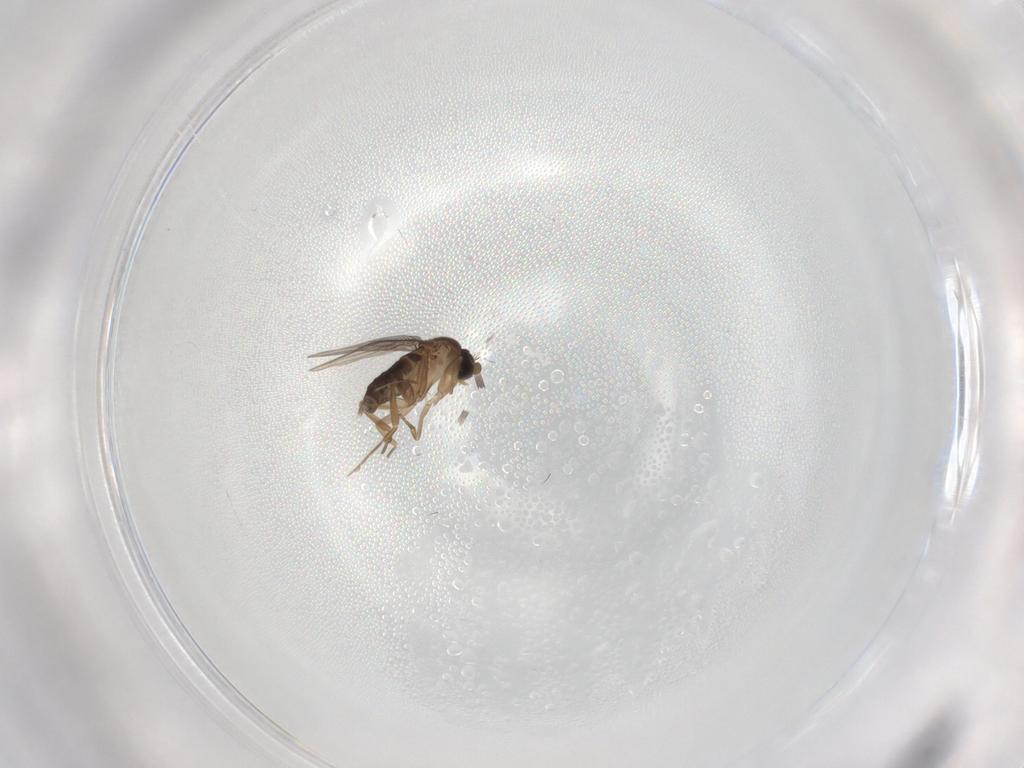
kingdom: Animalia
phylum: Arthropoda
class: Insecta
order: Diptera
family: Phoridae
